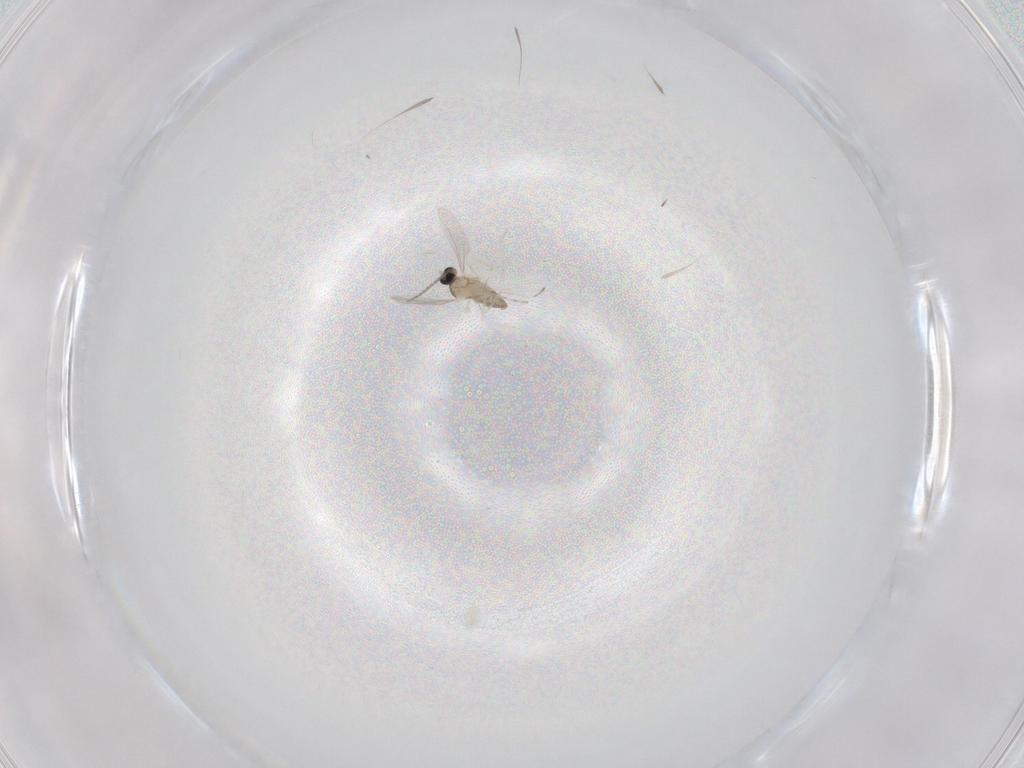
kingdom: Animalia
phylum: Arthropoda
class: Insecta
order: Diptera
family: Cecidomyiidae
